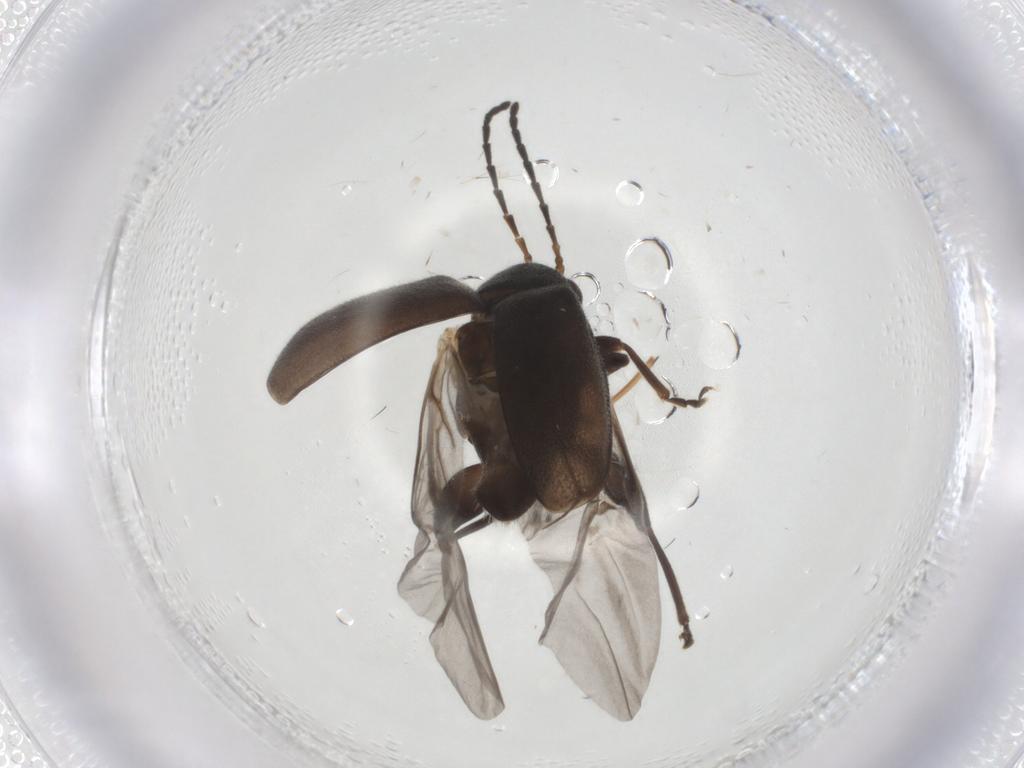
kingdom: Animalia
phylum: Arthropoda
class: Insecta
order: Coleoptera
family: Chrysomelidae
